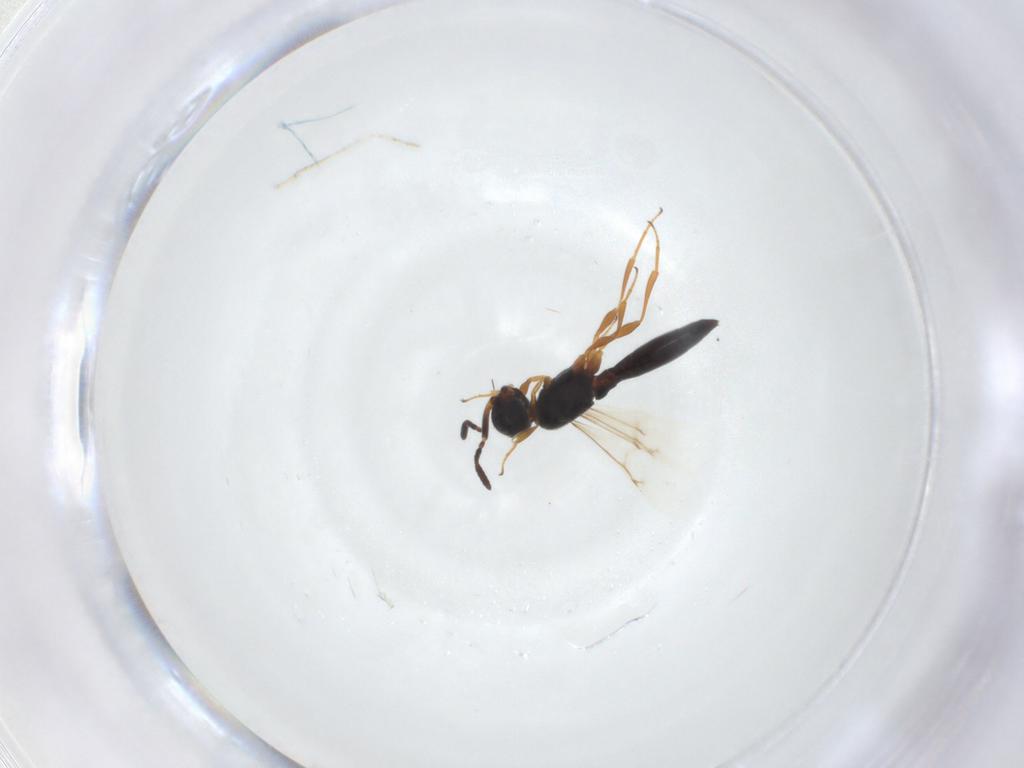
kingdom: Animalia
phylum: Arthropoda
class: Insecta
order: Hymenoptera
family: Scelionidae
